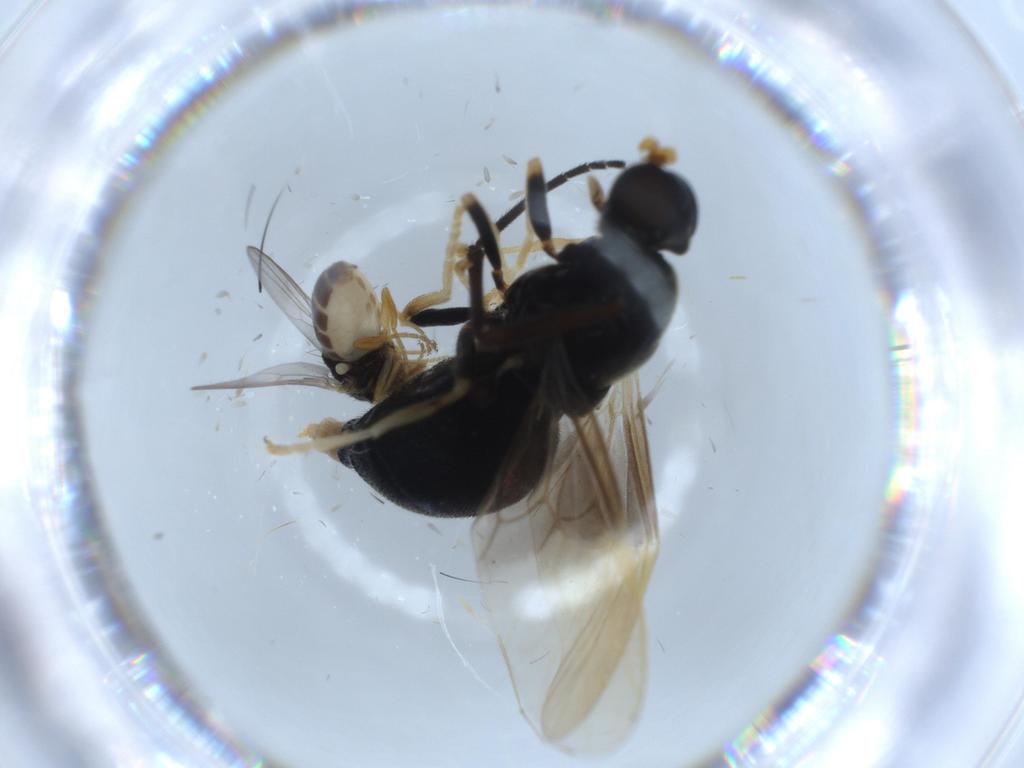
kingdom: Animalia
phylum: Arthropoda
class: Insecta
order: Diptera
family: Stratiomyidae
